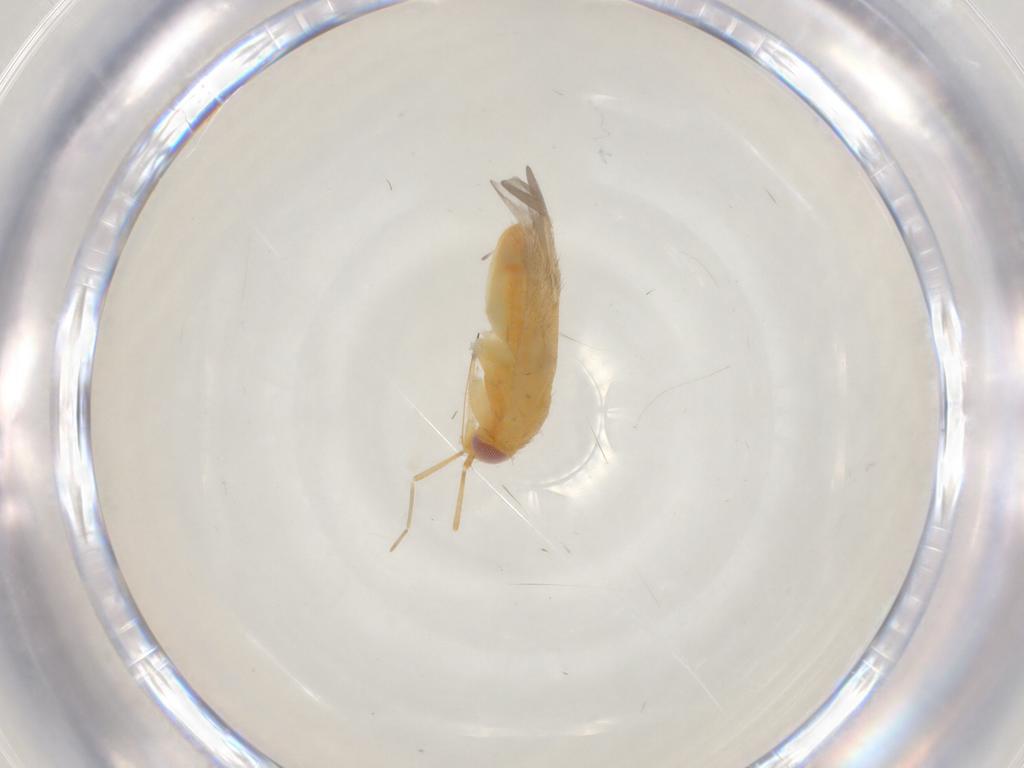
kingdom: Animalia
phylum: Arthropoda
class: Insecta
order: Hemiptera
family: Miridae
